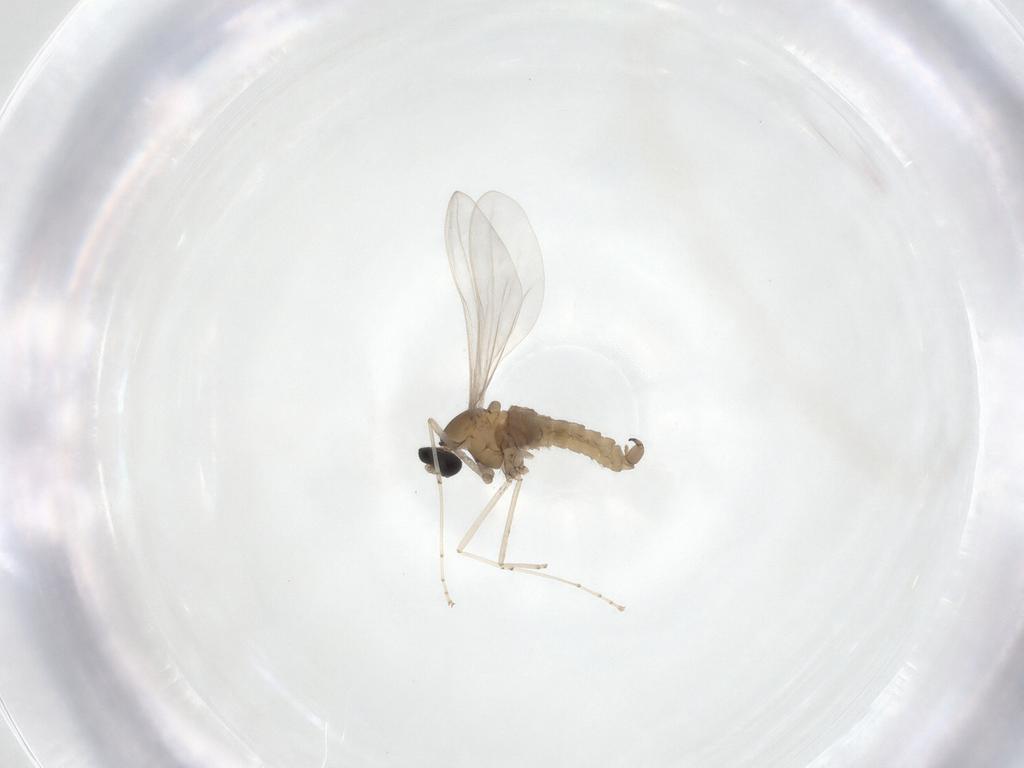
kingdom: Animalia
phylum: Arthropoda
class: Insecta
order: Diptera
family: Cecidomyiidae
